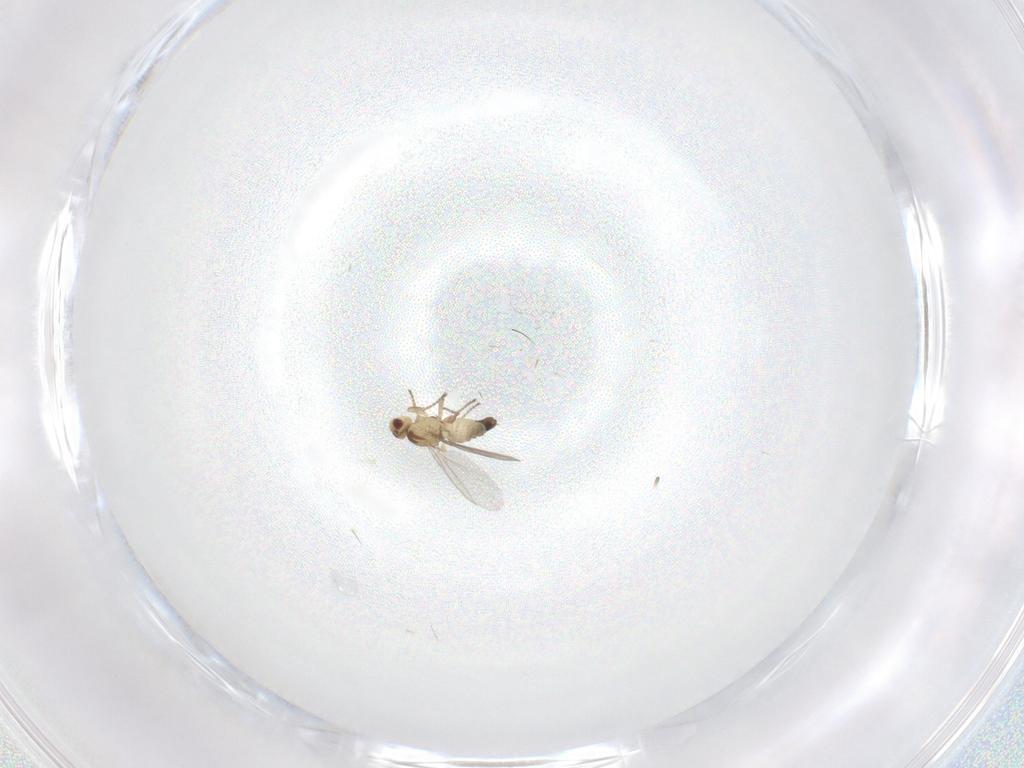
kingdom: Animalia
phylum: Arthropoda
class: Insecta
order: Diptera
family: Agromyzidae
